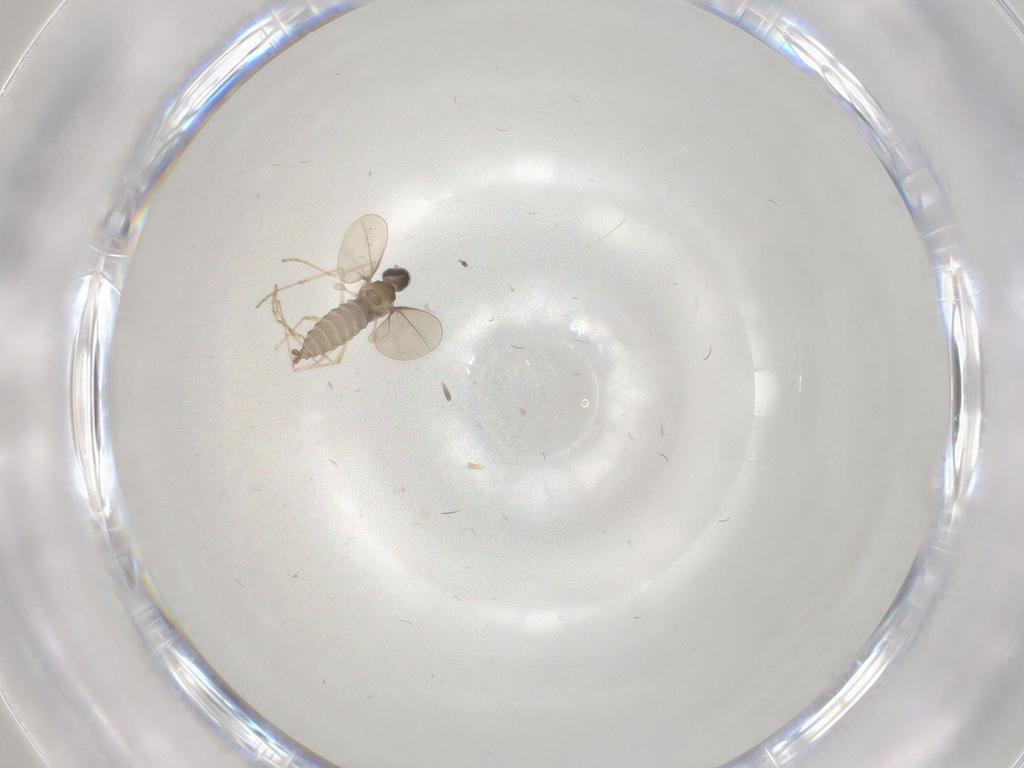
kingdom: Animalia
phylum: Arthropoda
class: Insecta
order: Diptera
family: Cecidomyiidae
